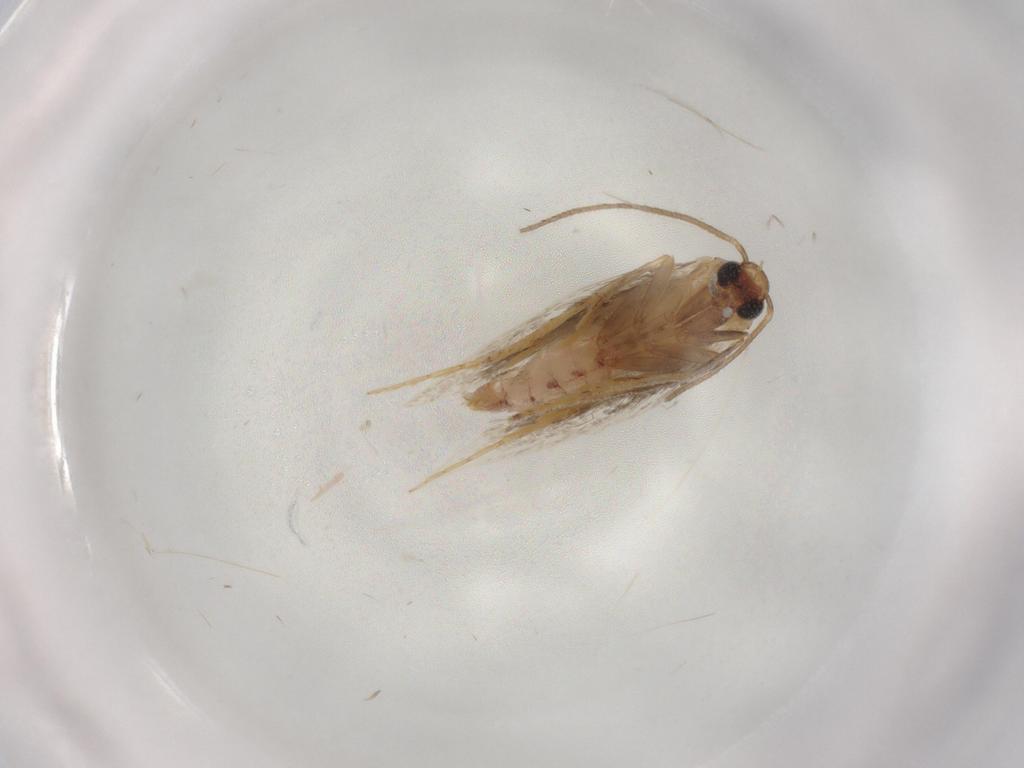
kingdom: Animalia
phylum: Arthropoda
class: Insecta
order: Lepidoptera
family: Geometridae
